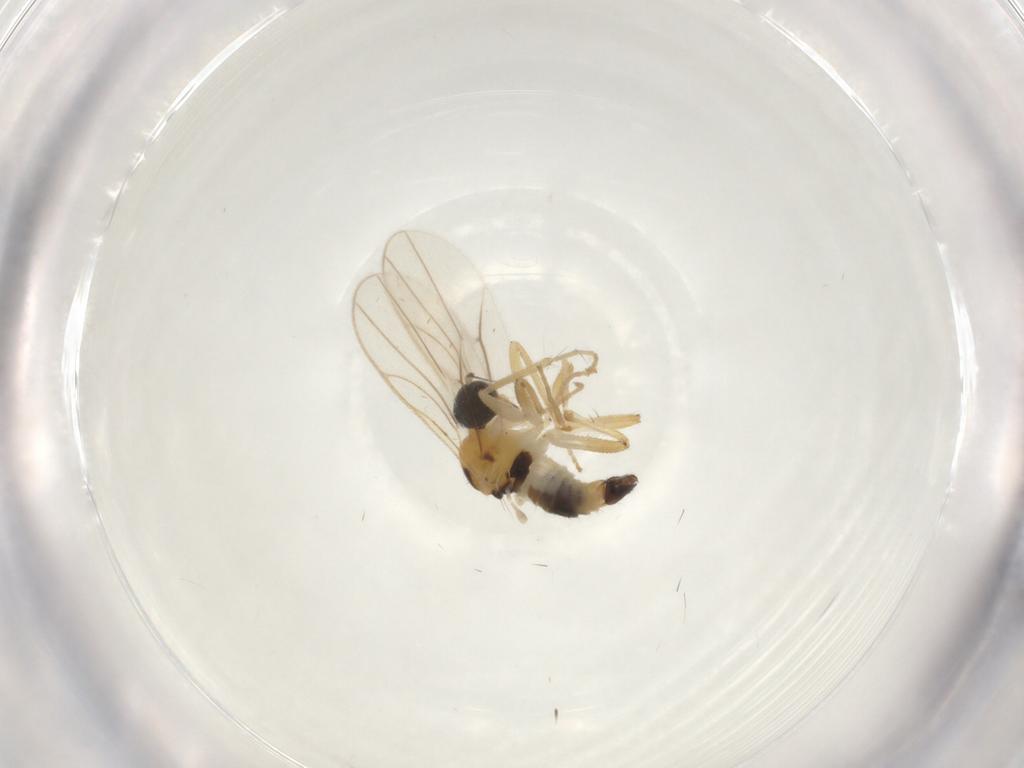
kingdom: Animalia
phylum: Arthropoda
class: Insecta
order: Diptera
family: Hybotidae
